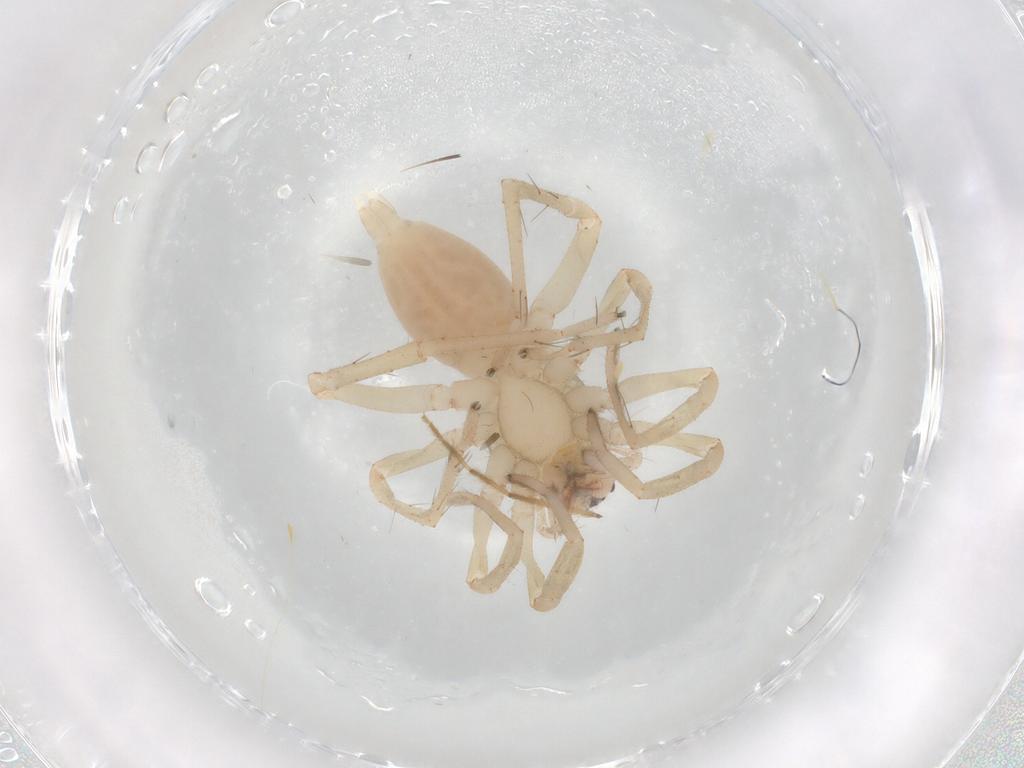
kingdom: Animalia
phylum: Arthropoda
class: Arachnida
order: Araneae
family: Clubionidae
